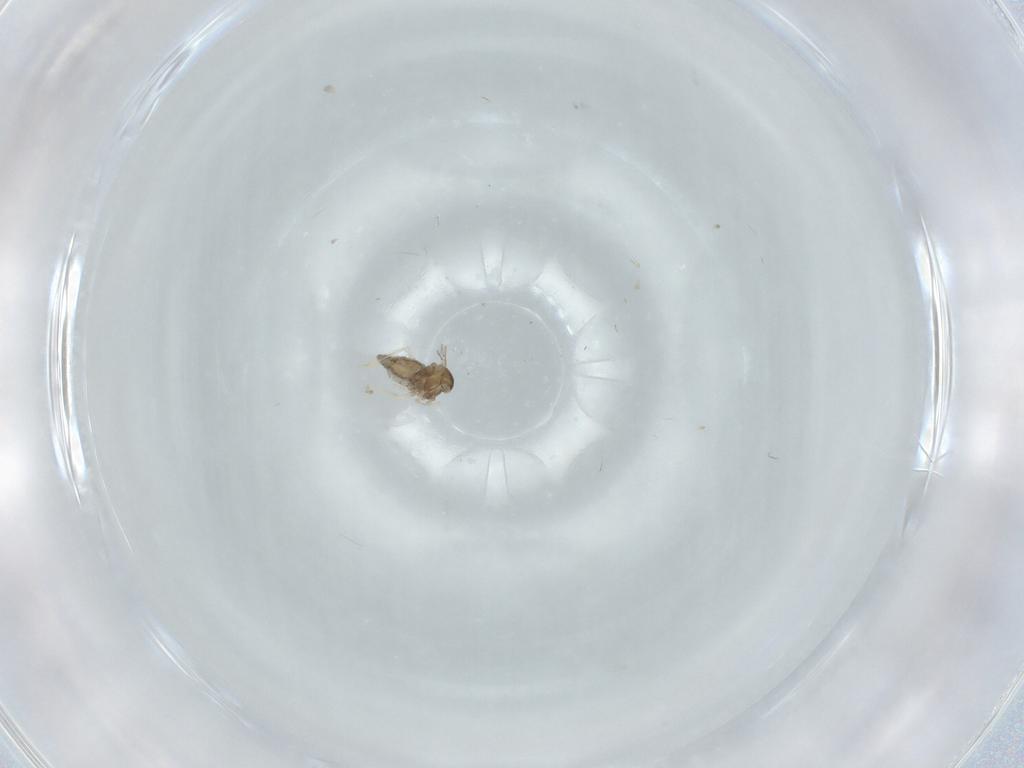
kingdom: Animalia
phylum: Arthropoda
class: Insecta
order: Diptera
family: Cecidomyiidae
